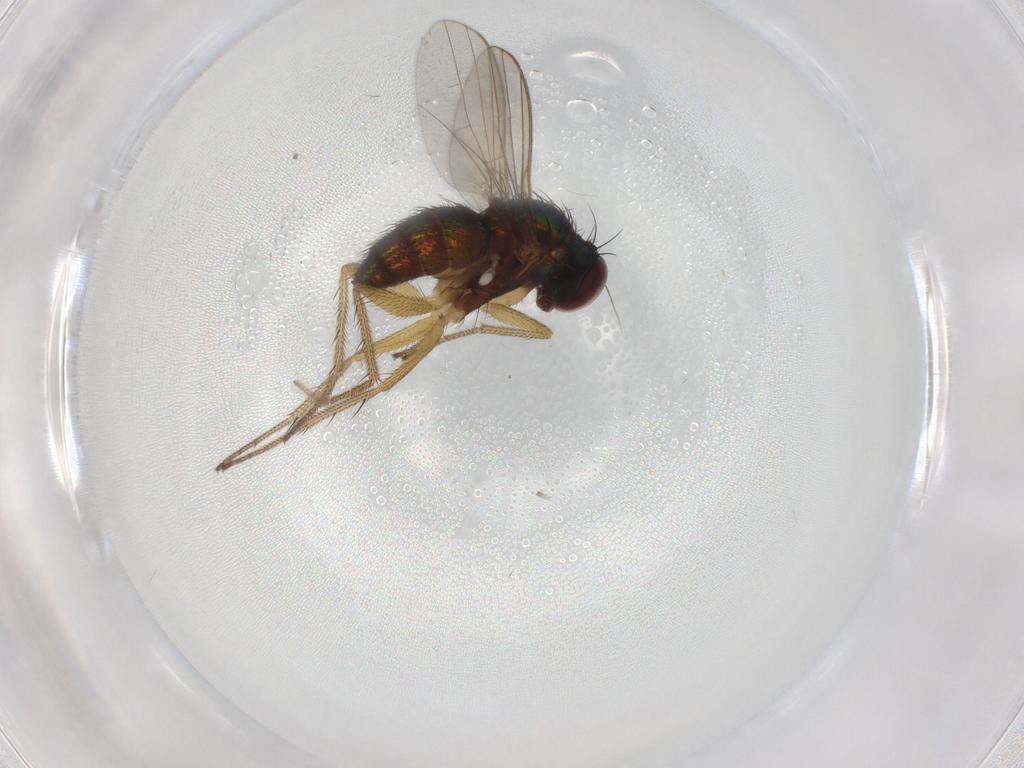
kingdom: Animalia
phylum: Arthropoda
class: Insecta
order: Diptera
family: Dolichopodidae
